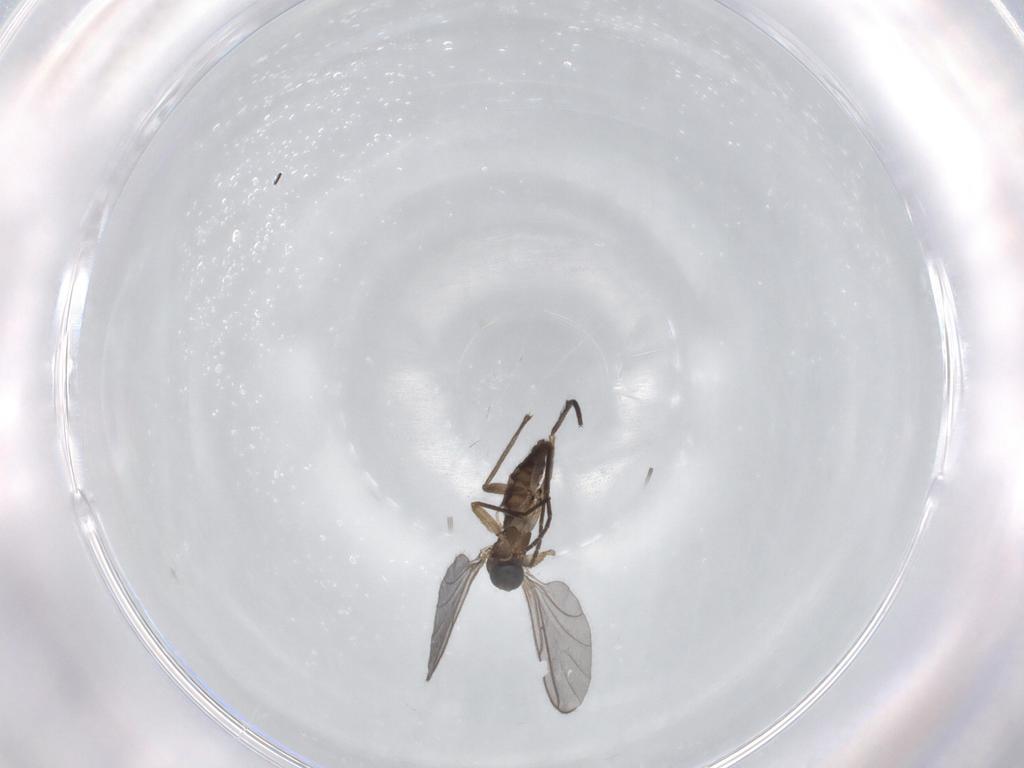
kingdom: Animalia
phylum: Arthropoda
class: Insecta
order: Diptera
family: Sciaridae
